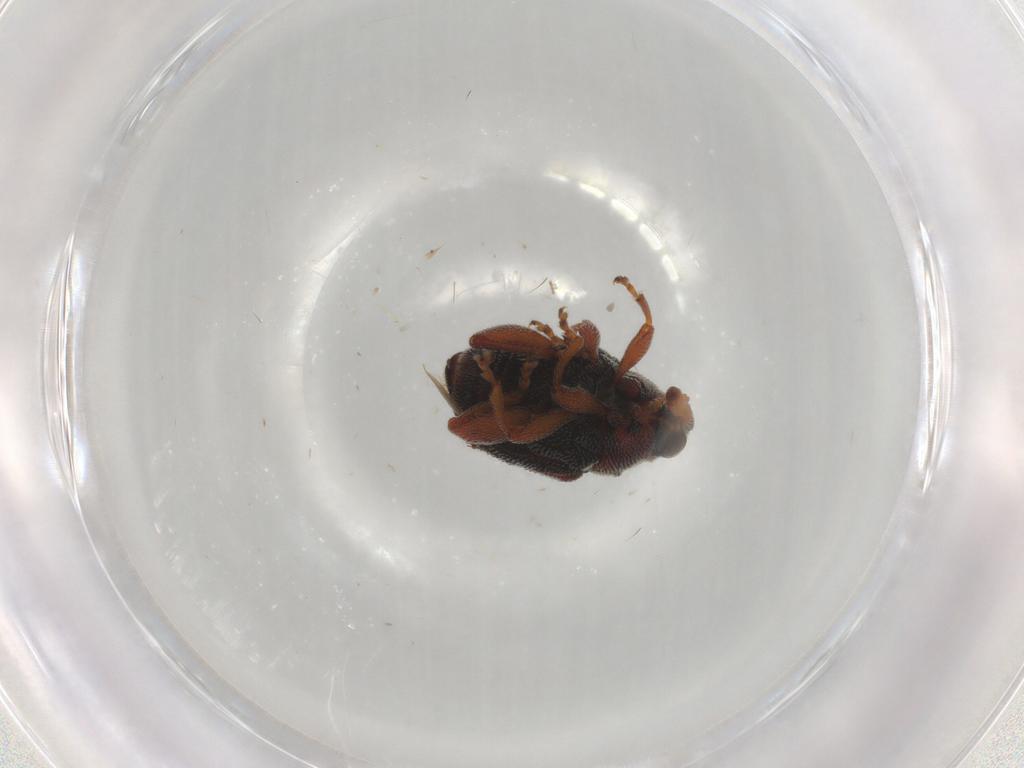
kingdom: Animalia
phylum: Arthropoda
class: Insecta
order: Coleoptera
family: Curculionidae
